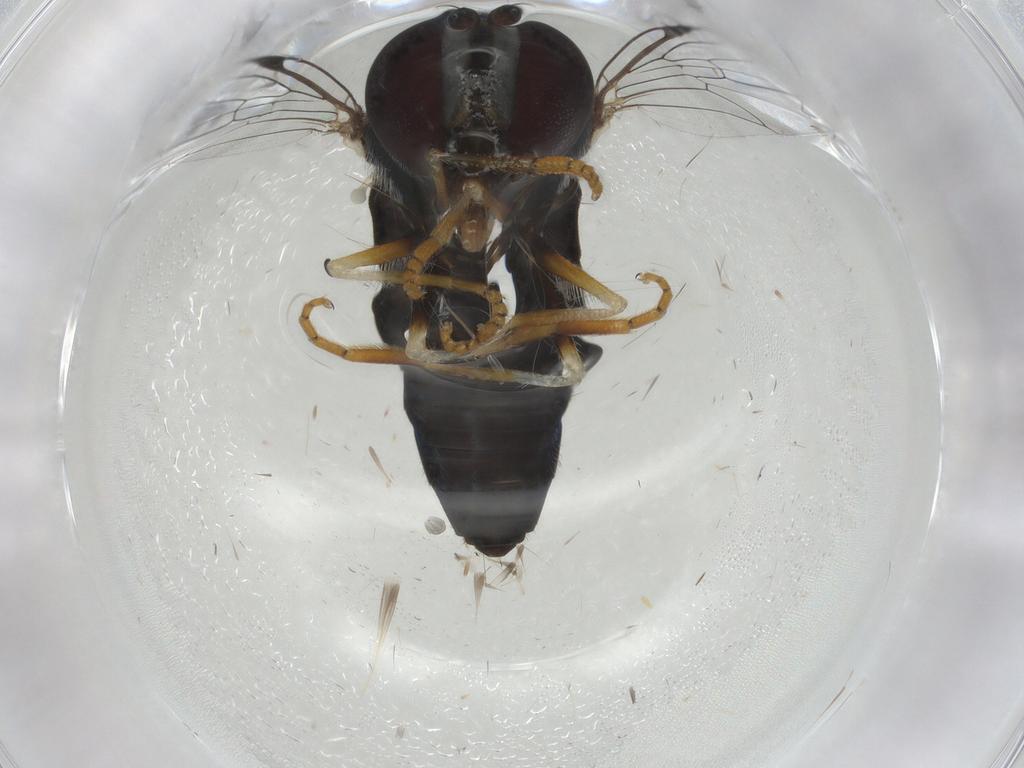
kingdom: Animalia
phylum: Arthropoda
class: Insecta
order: Diptera
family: Syrphidae
